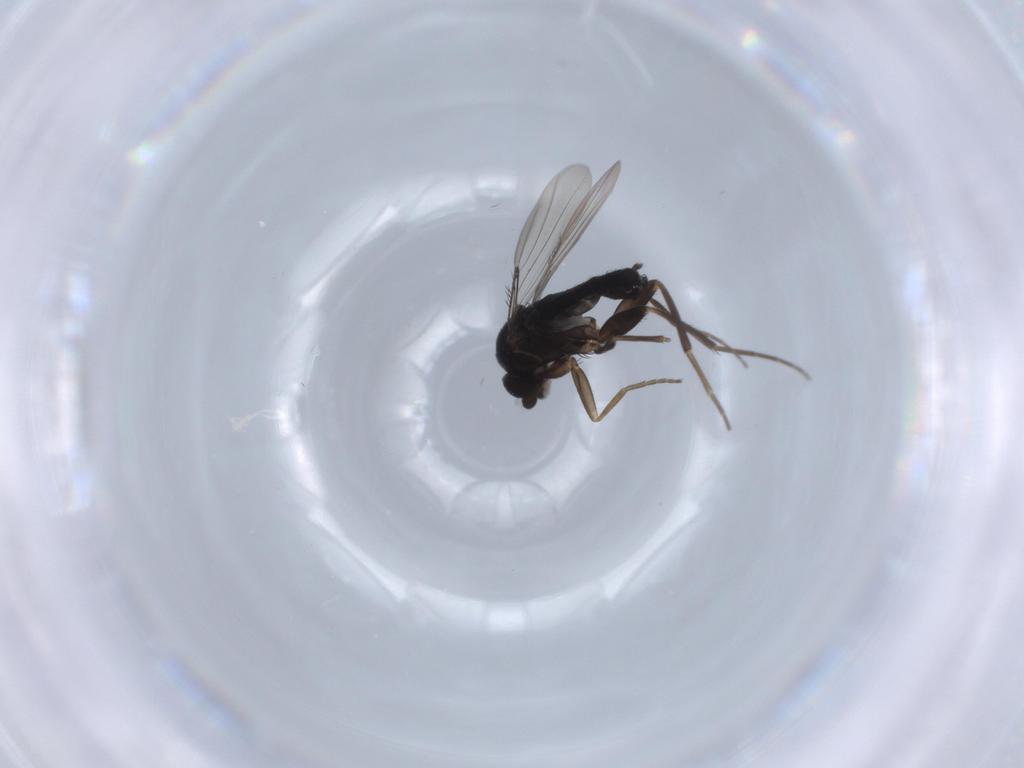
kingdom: Animalia
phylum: Arthropoda
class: Insecta
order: Diptera
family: Phoridae
